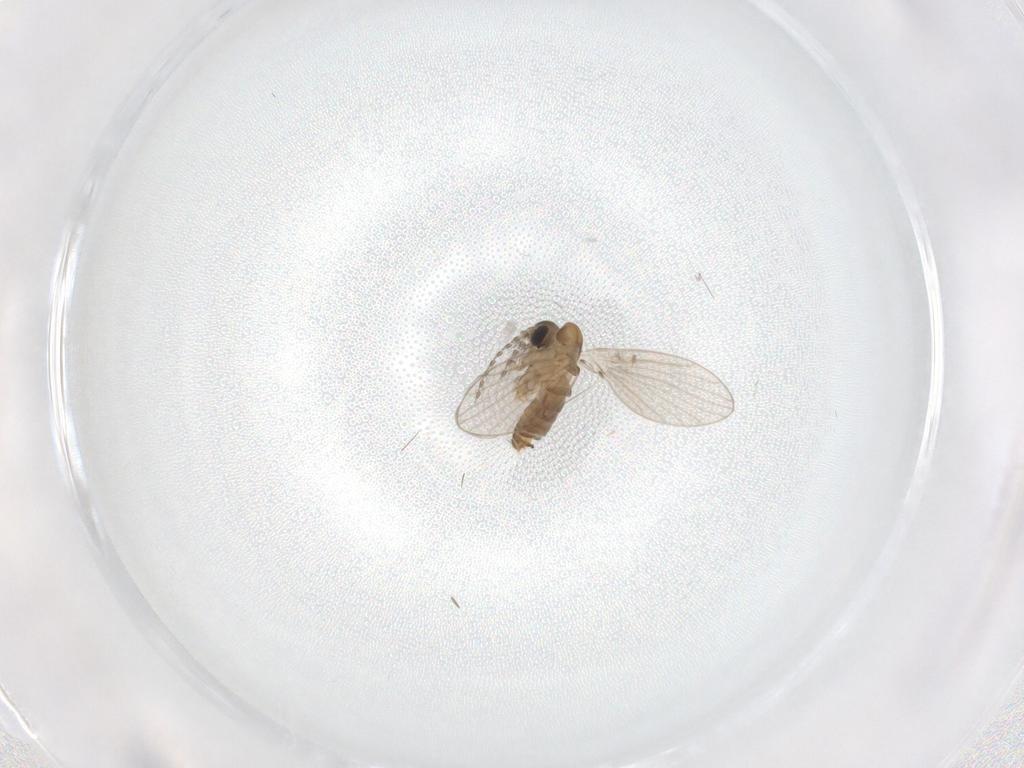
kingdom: Animalia
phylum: Arthropoda
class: Insecta
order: Diptera
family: Psychodidae
